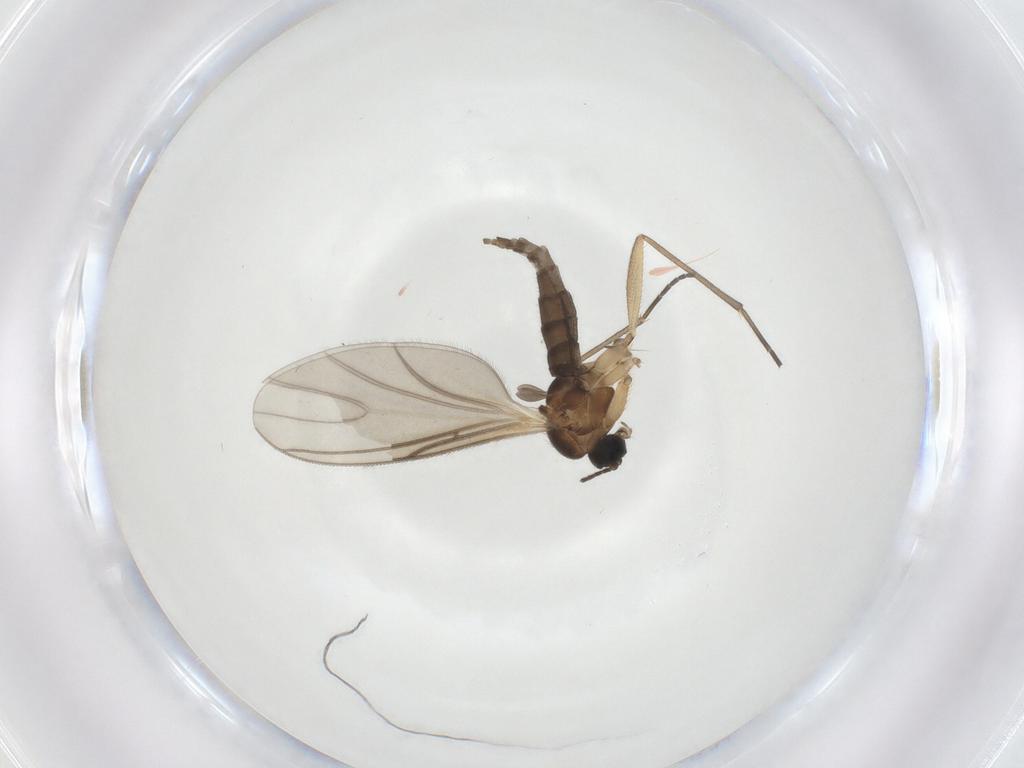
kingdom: Animalia
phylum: Arthropoda
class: Insecta
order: Diptera
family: Sciaridae
